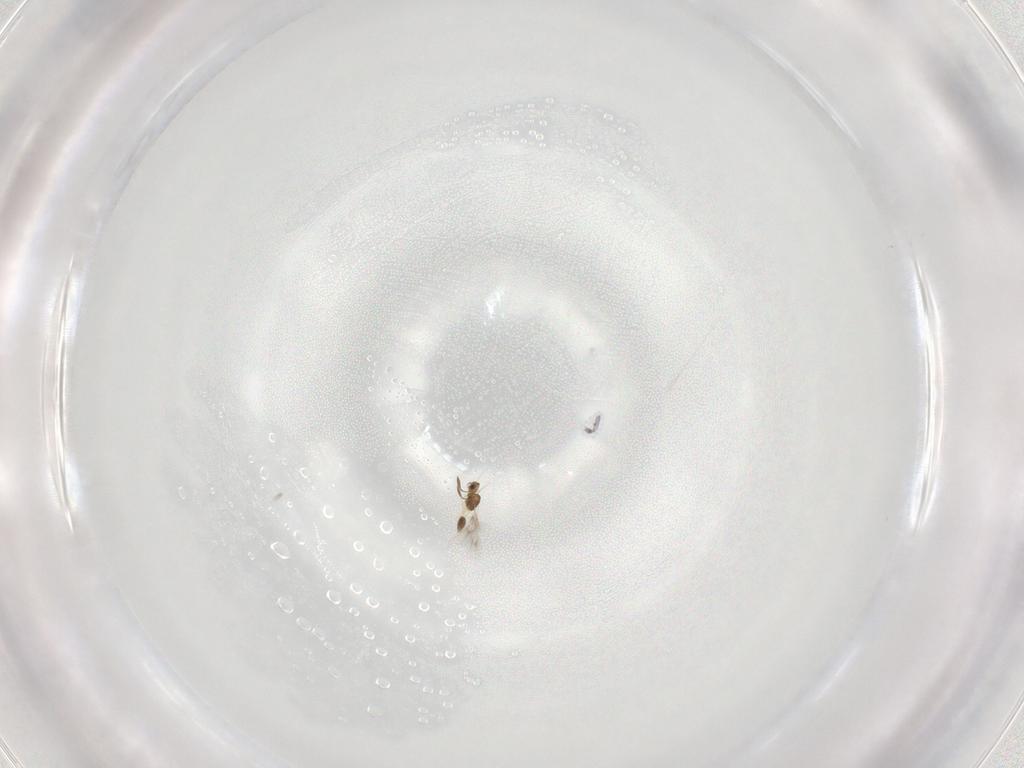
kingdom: Animalia
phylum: Arthropoda
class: Insecta
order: Hymenoptera
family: Mymarommatidae
